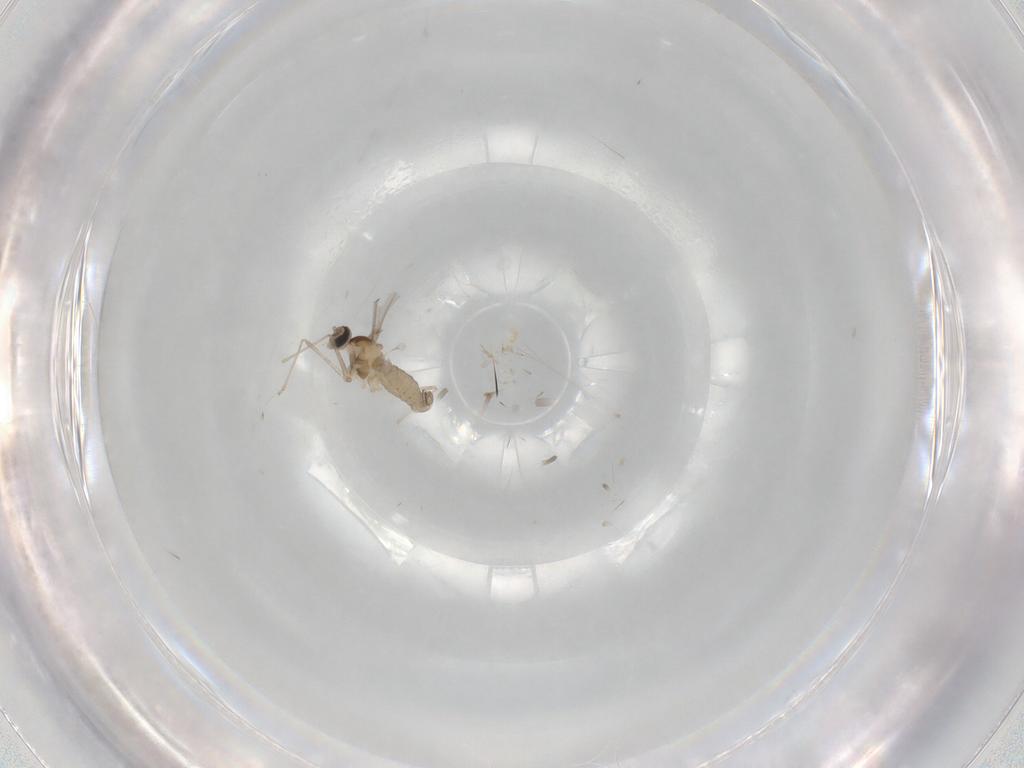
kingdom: Animalia
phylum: Arthropoda
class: Insecta
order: Diptera
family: Cecidomyiidae
